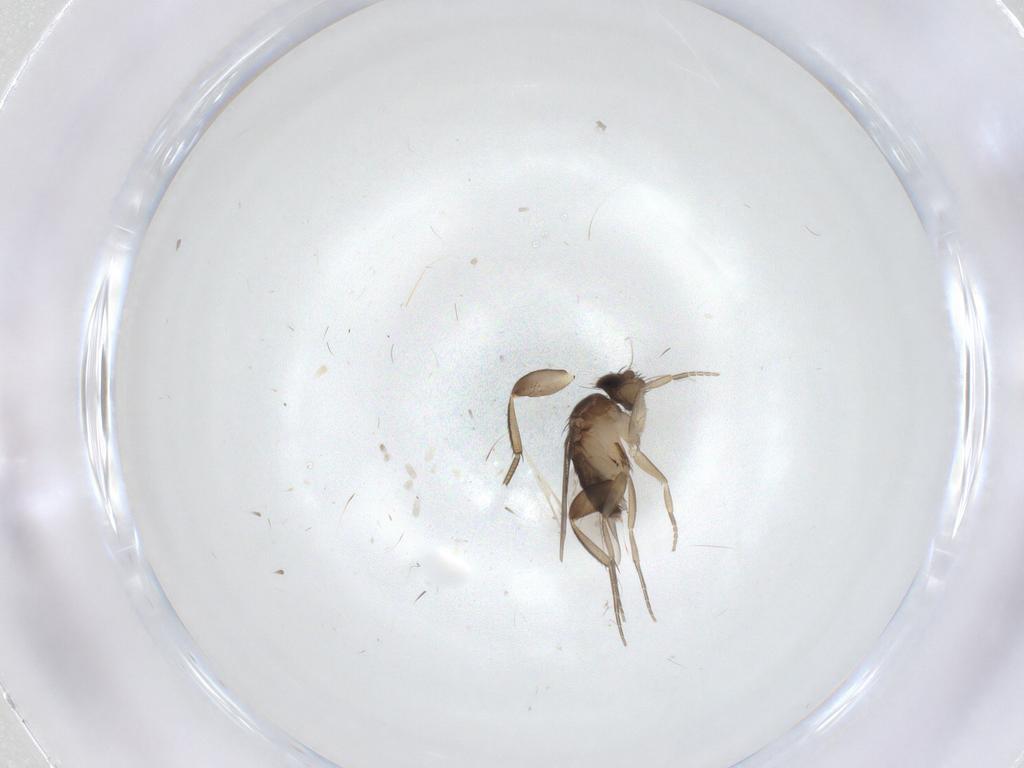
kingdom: Animalia
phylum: Arthropoda
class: Insecta
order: Diptera
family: Phoridae
